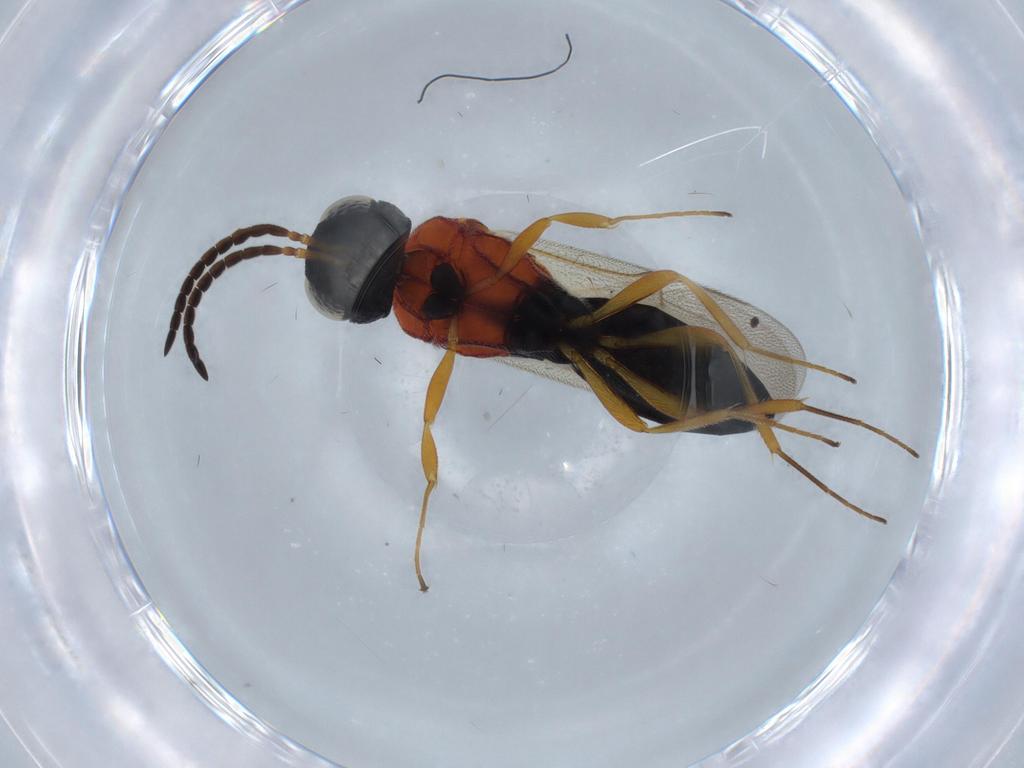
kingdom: Animalia
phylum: Arthropoda
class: Insecta
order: Hymenoptera
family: Scelionidae
